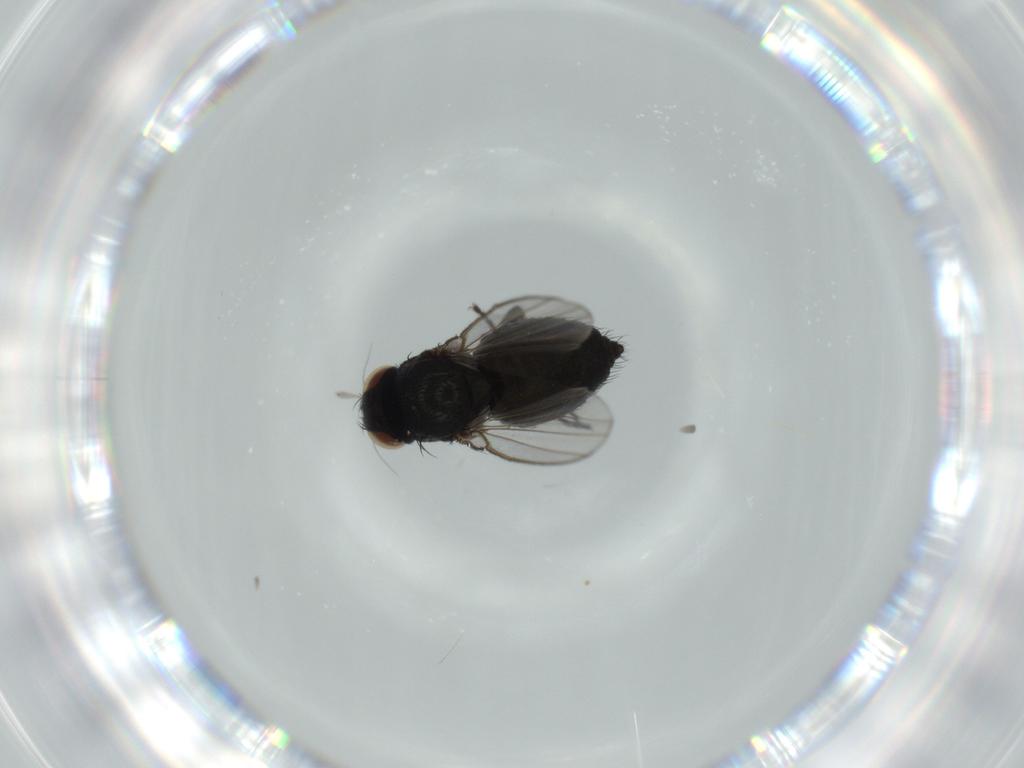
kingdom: Animalia
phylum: Arthropoda
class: Insecta
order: Diptera
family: Milichiidae
